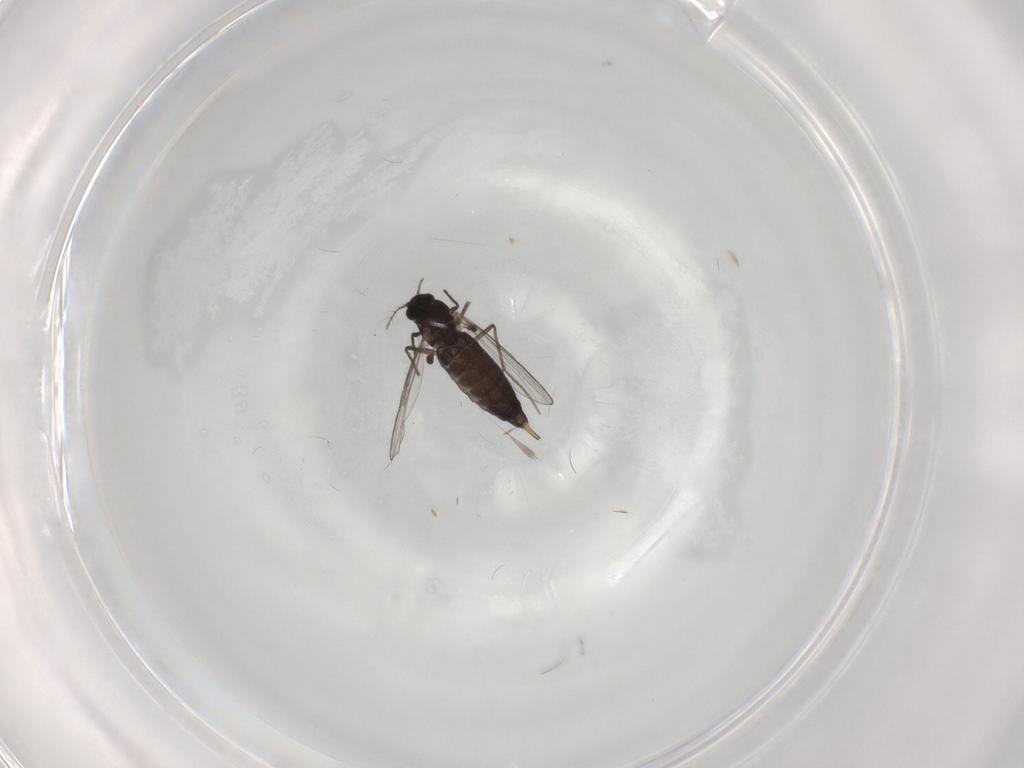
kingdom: Animalia
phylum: Arthropoda
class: Insecta
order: Diptera
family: Chironomidae
